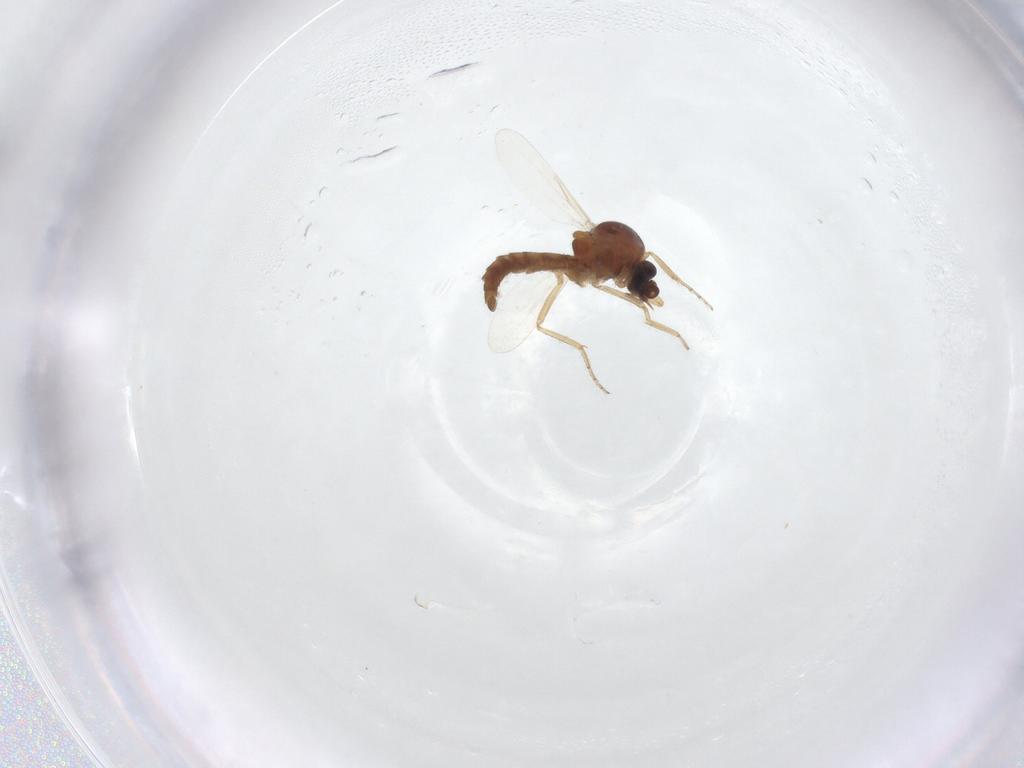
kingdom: Animalia
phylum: Arthropoda
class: Insecta
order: Diptera
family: Ceratopogonidae
